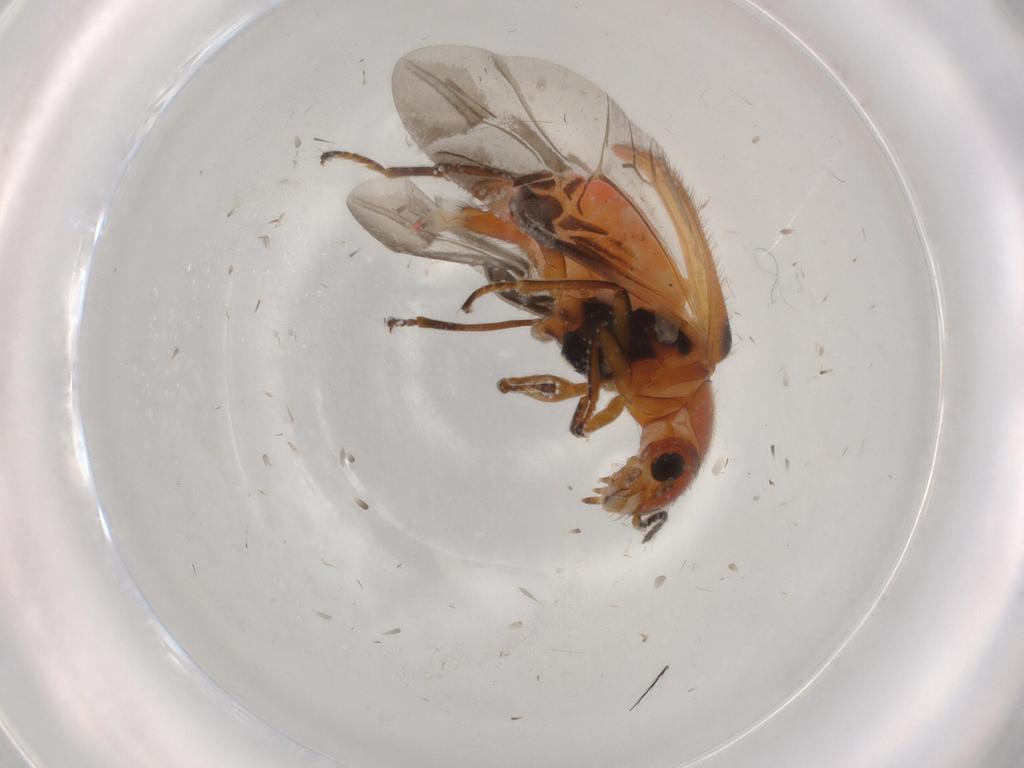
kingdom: Animalia
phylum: Arthropoda
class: Insecta
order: Coleoptera
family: Melyridae
